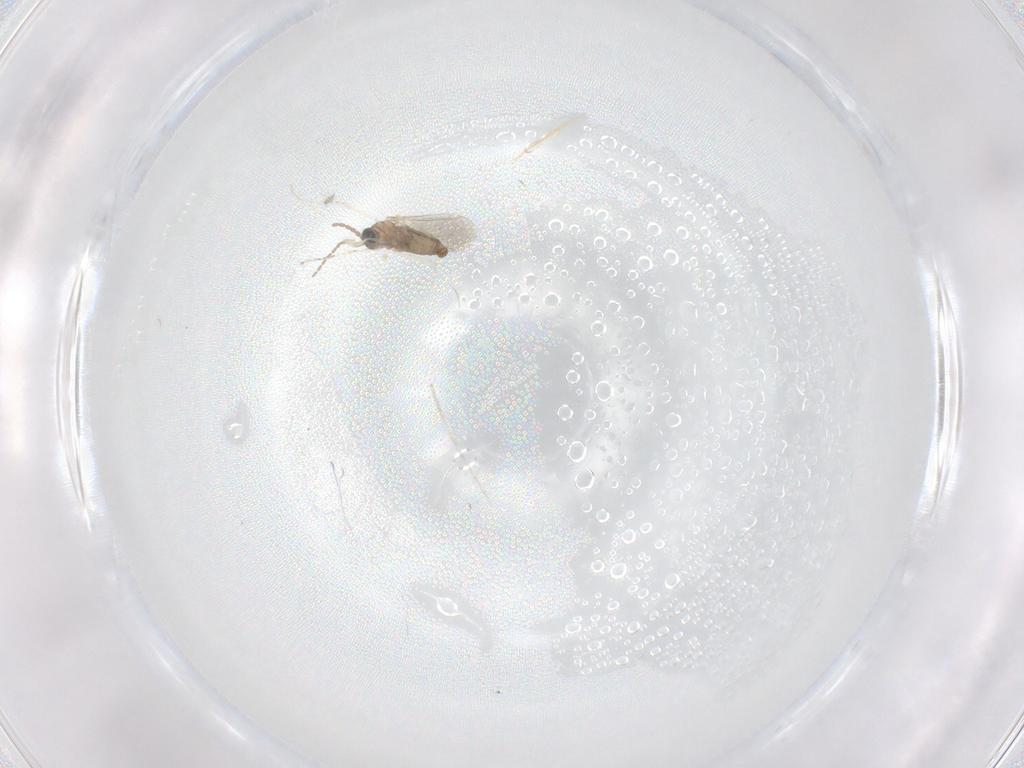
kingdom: Animalia
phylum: Arthropoda
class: Insecta
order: Diptera
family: Cecidomyiidae
